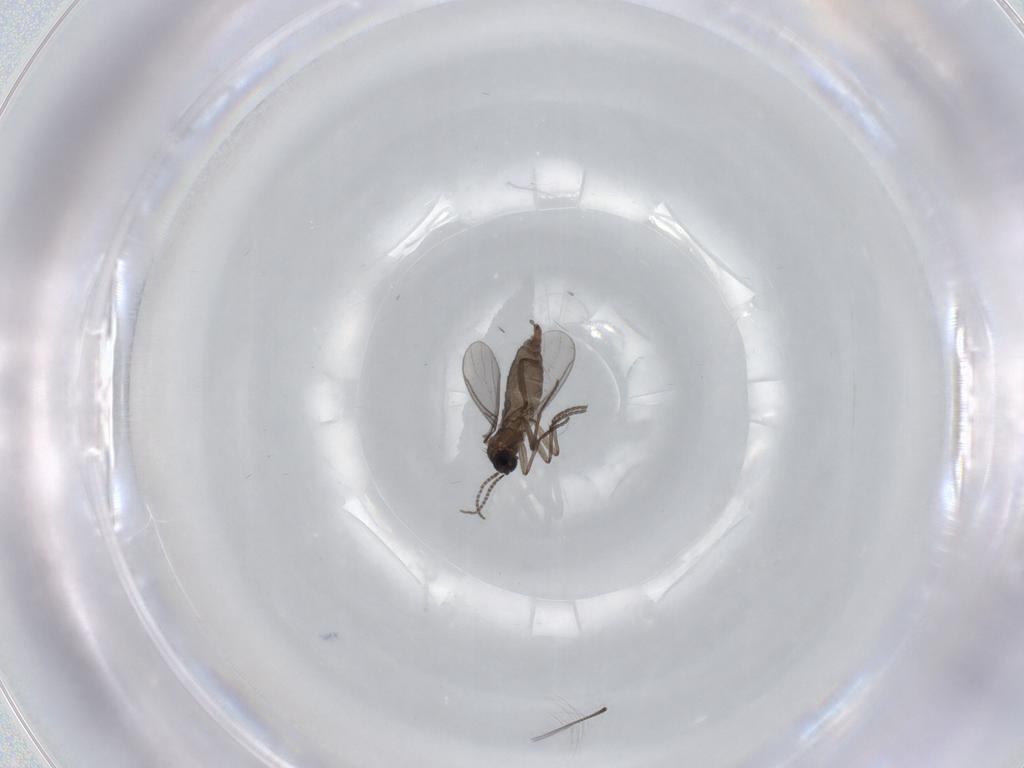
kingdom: Animalia
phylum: Arthropoda
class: Insecta
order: Diptera
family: Sciaridae
